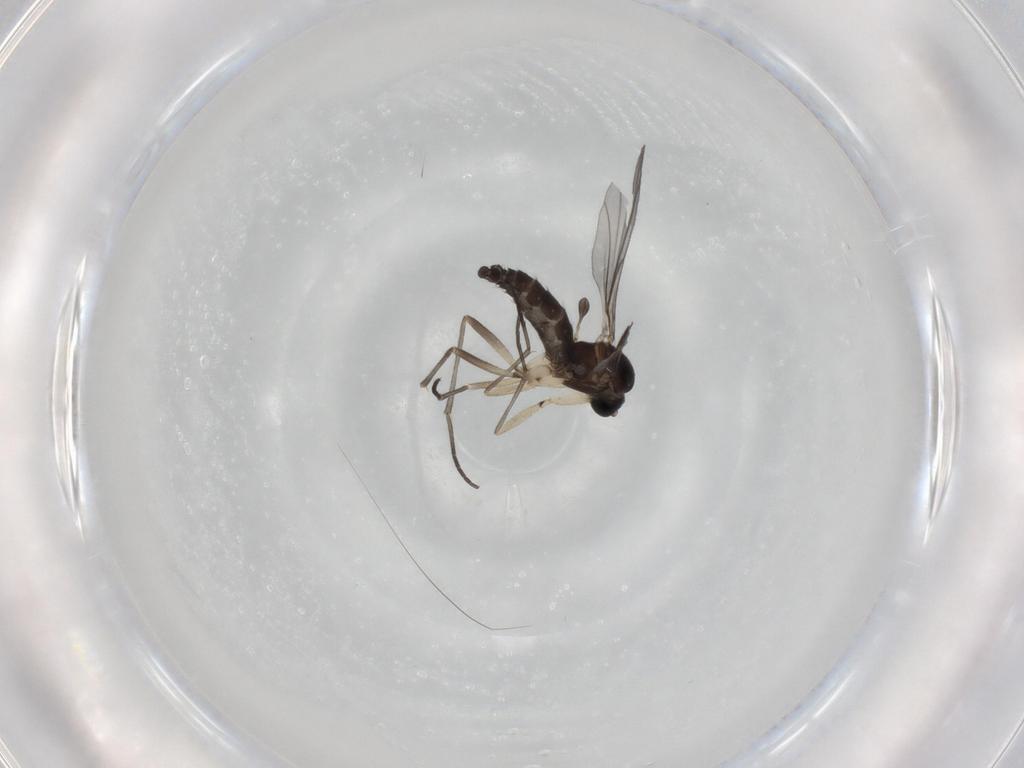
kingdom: Animalia
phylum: Arthropoda
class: Insecta
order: Diptera
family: Sciaridae
